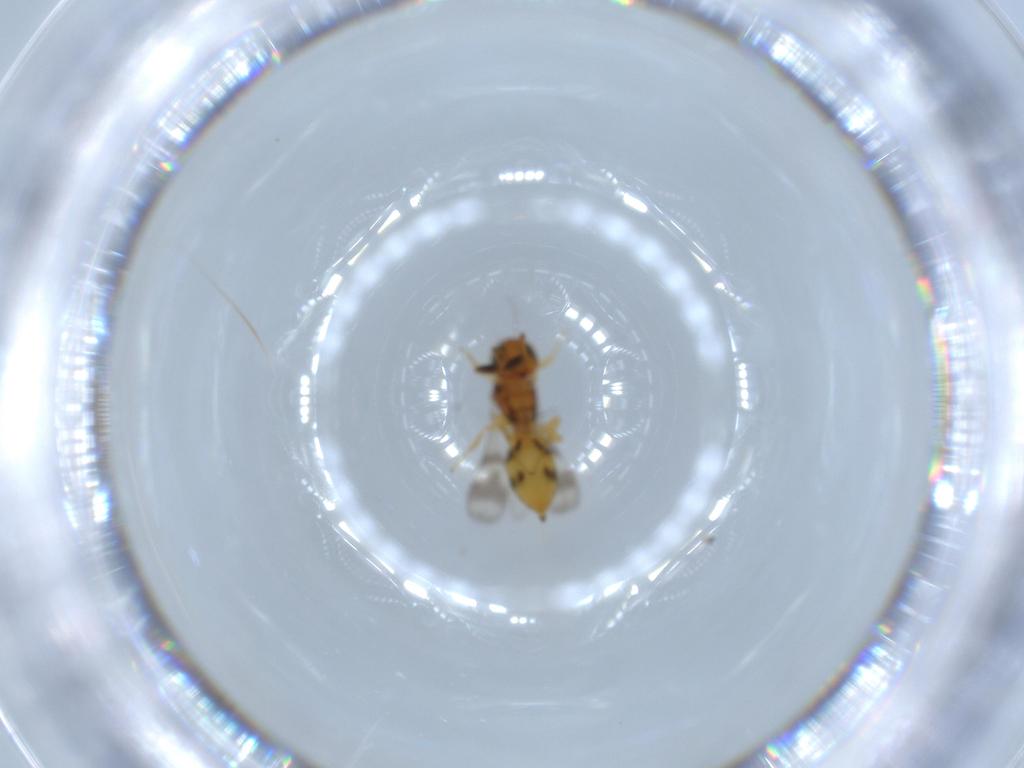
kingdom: Animalia
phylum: Arthropoda
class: Insecta
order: Hymenoptera
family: Scelionidae
